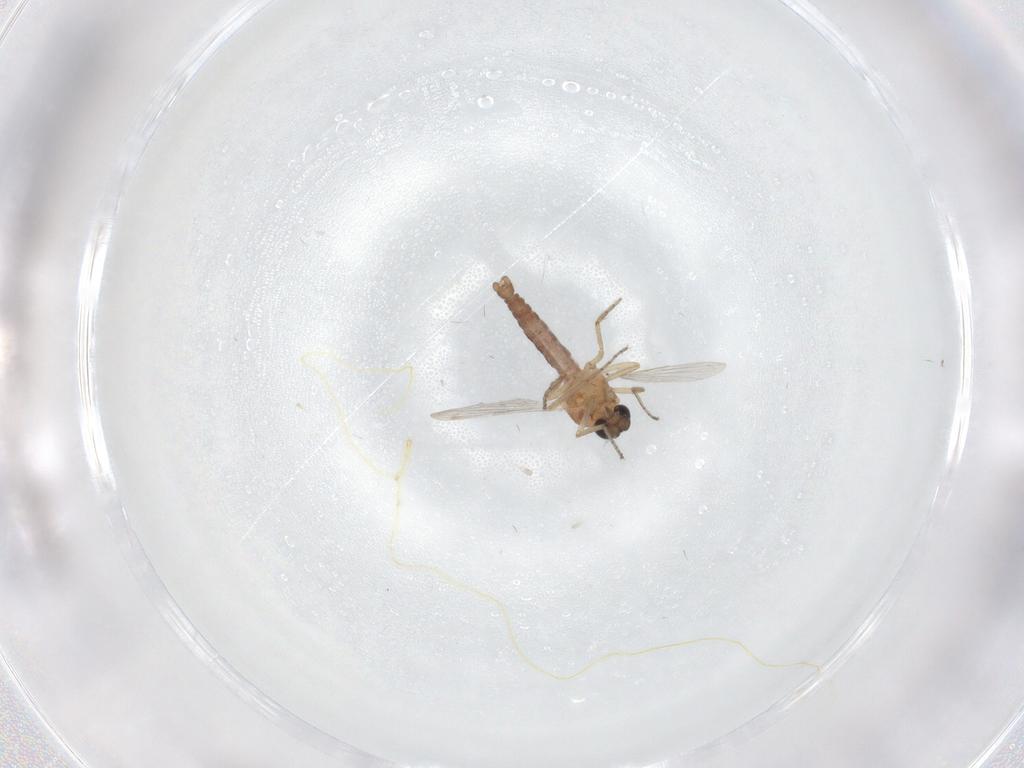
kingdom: Animalia
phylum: Arthropoda
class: Insecta
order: Diptera
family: Ceratopogonidae
